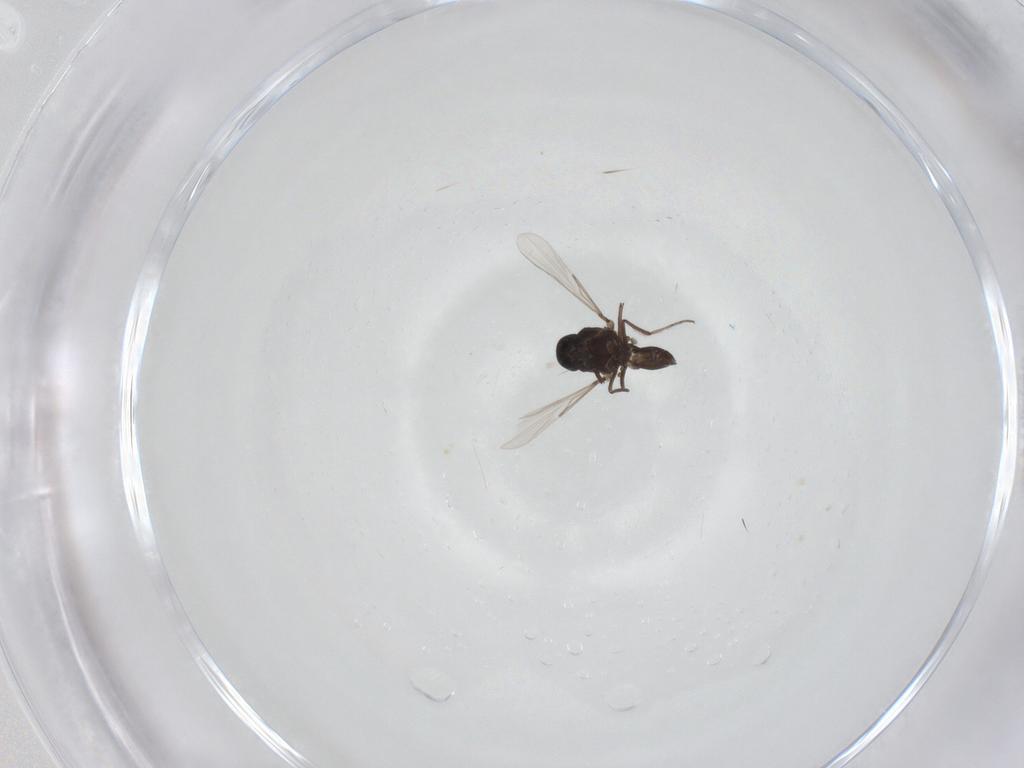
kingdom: Animalia
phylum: Arthropoda
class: Insecta
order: Diptera
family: Ceratopogonidae
